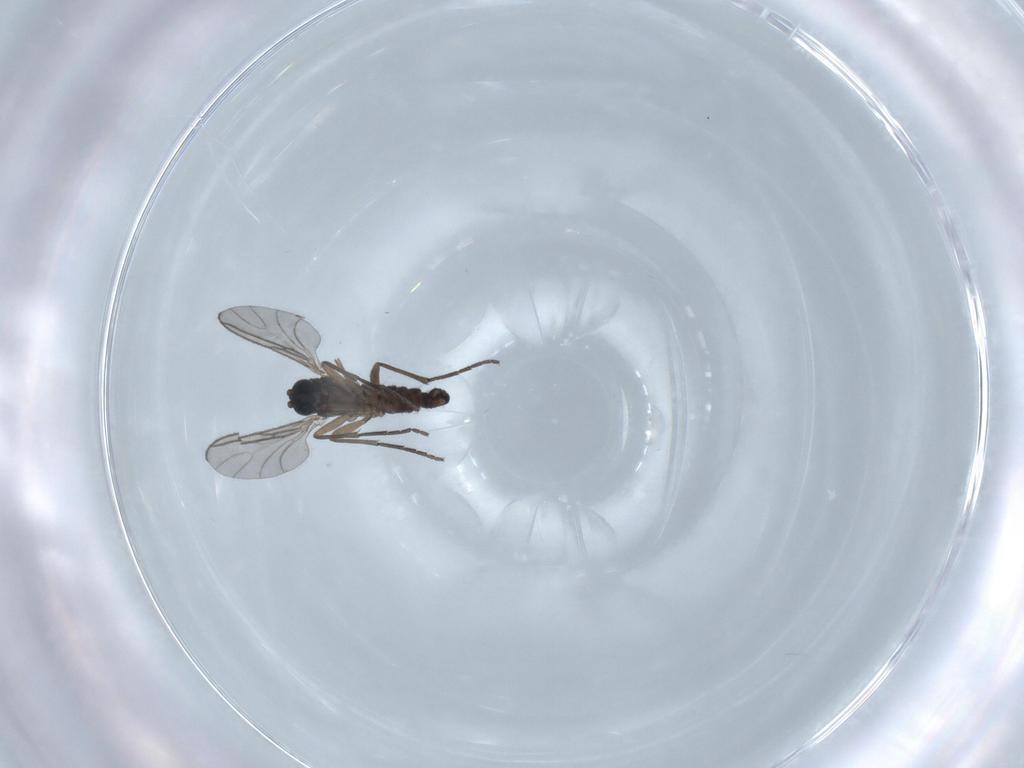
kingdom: Animalia
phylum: Arthropoda
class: Insecta
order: Diptera
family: Sciaridae
